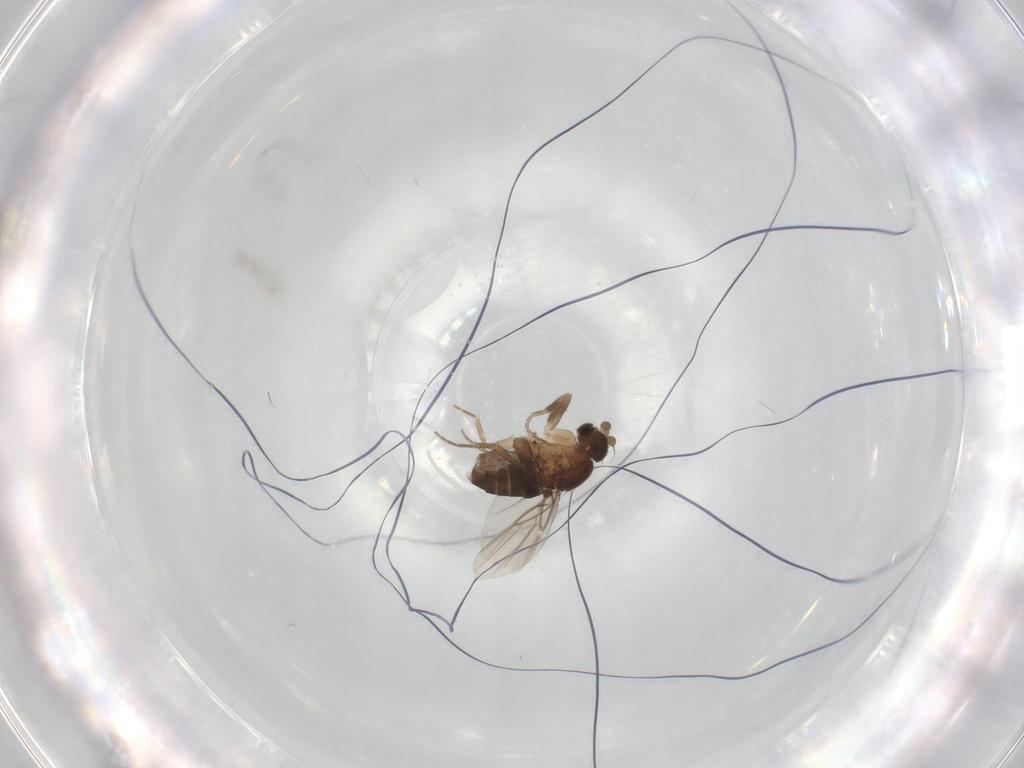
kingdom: Animalia
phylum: Arthropoda
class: Insecta
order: Diptera
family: Phoridae
